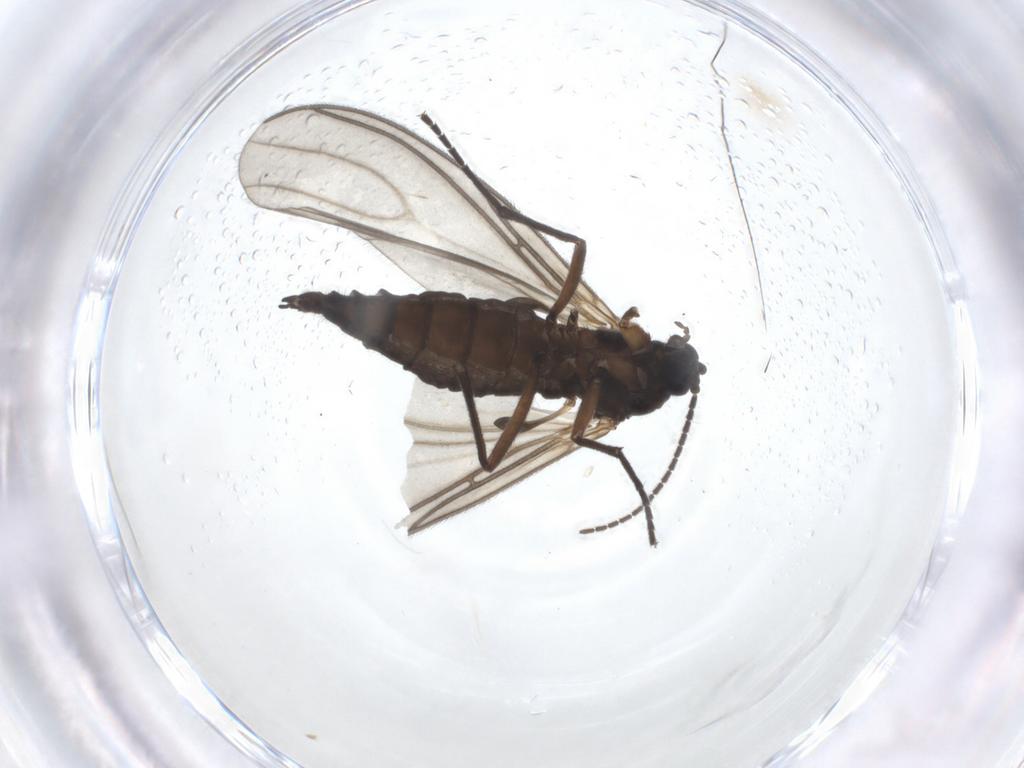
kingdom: Animalia
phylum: Arthropoda
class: Insecta
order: Diptera
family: Sciaridae
